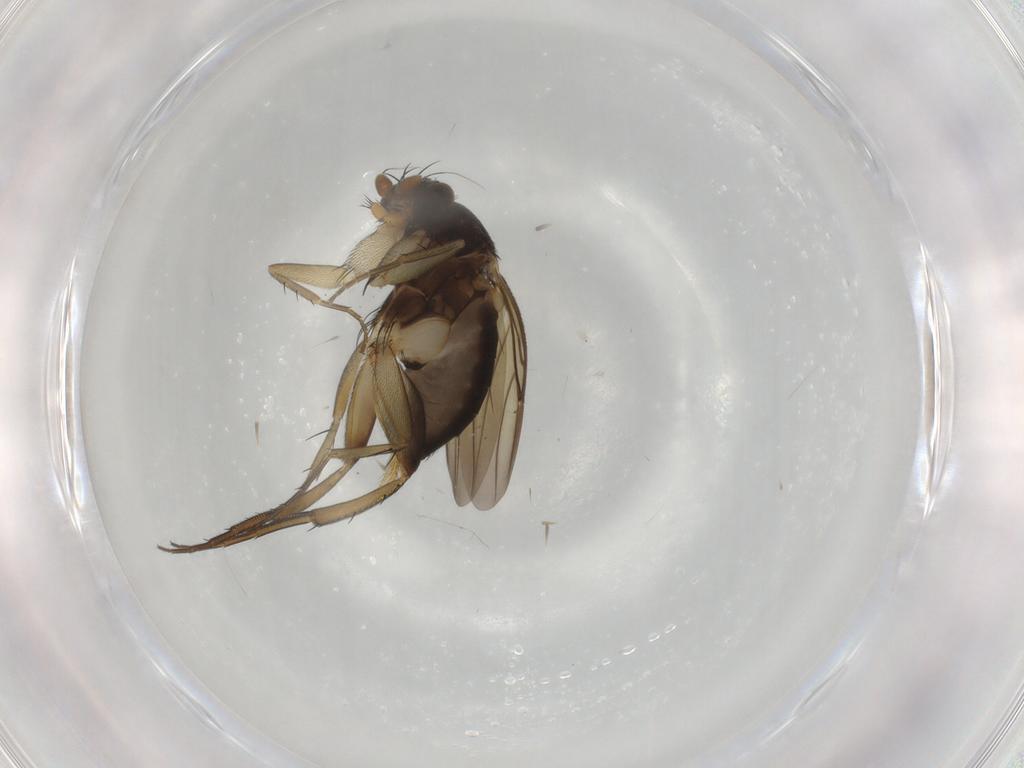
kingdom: Animalia
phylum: Arthropoda
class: Insecta
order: Diptera
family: Phoridae
